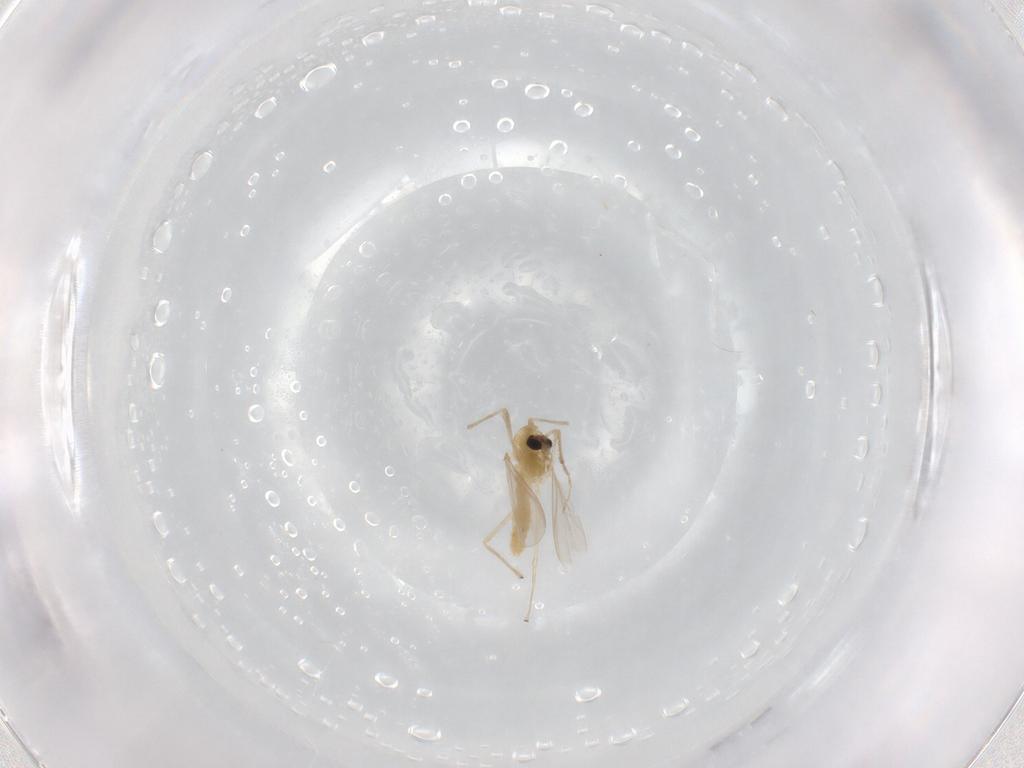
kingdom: Animalia
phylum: Arthropoda
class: Insecta
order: Diptera
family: Chironomidae
